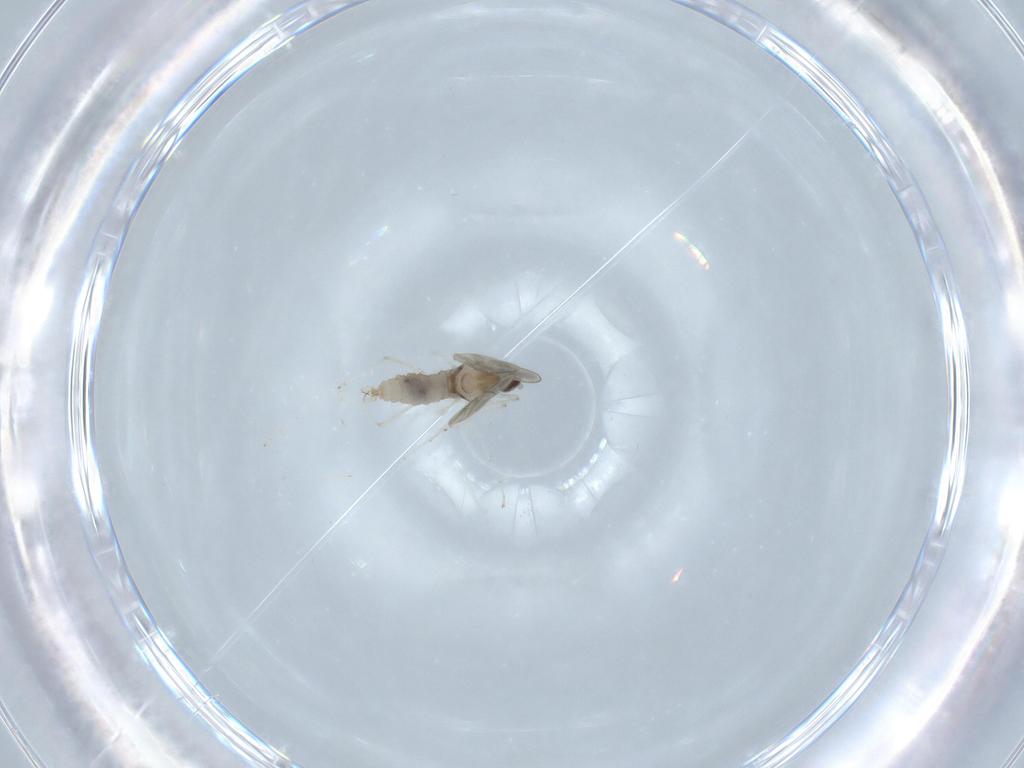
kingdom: Animalia
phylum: Arthropoda
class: Insecta
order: Diptera
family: Cecidomyiidae
